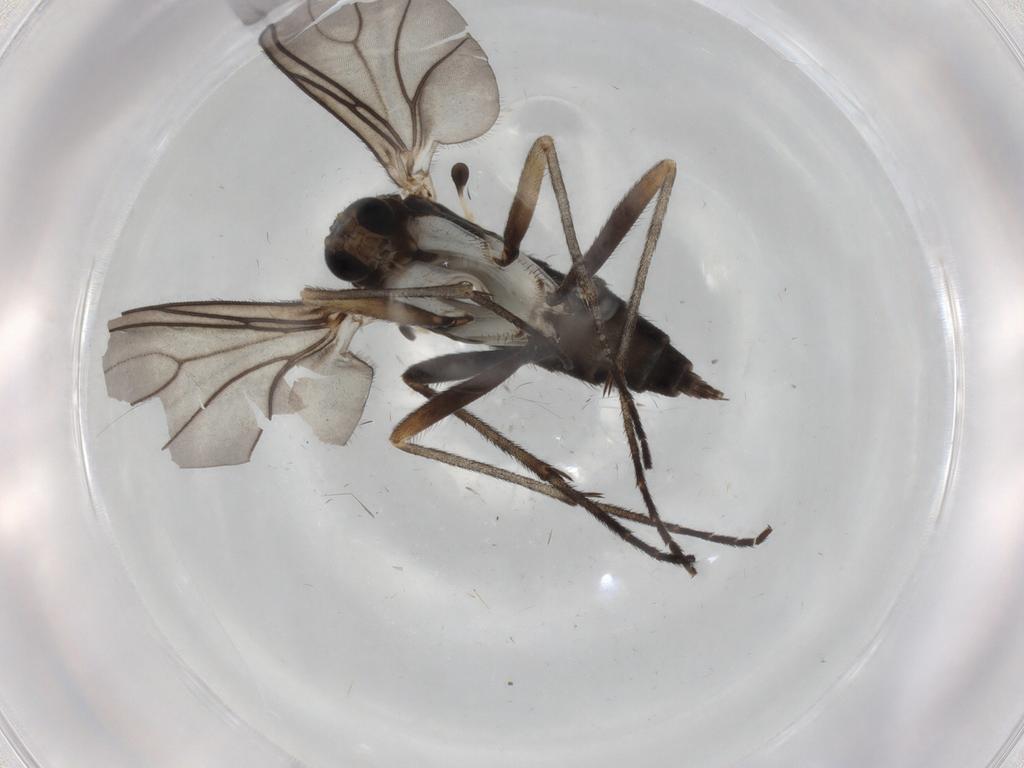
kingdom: Animalia
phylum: Arthropoda
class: Insecta
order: Diptera
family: Sciaridae
